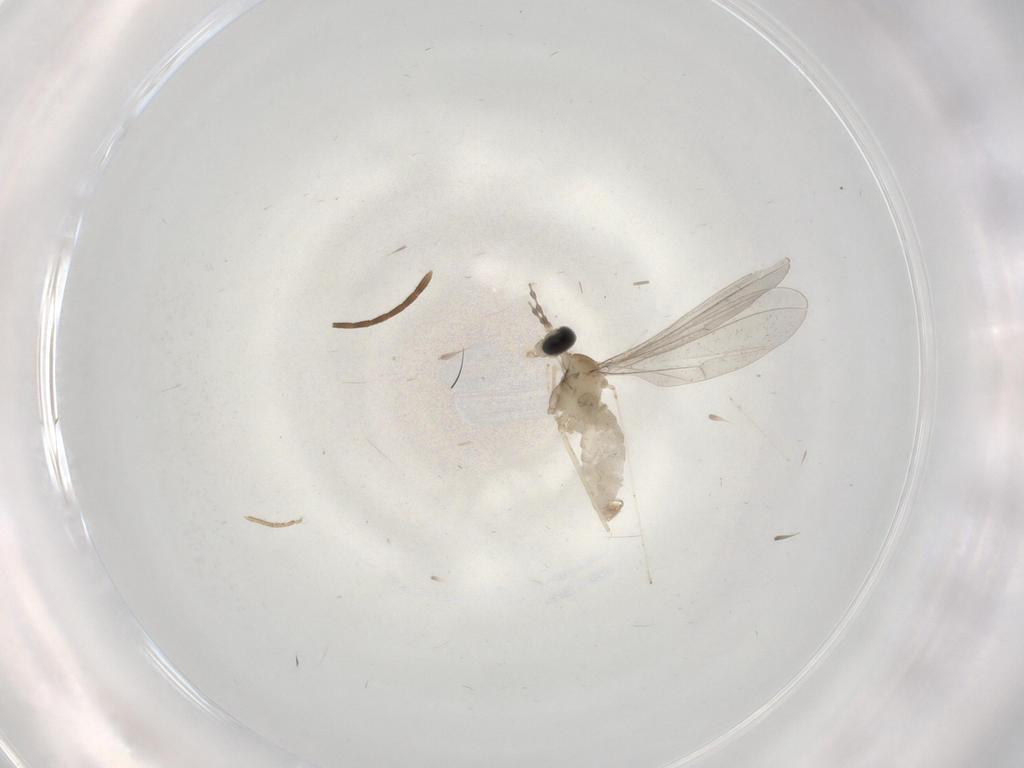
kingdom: Animalia
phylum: Arthropoda
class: Insecta
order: Diptera
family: Cecidomyiidae
